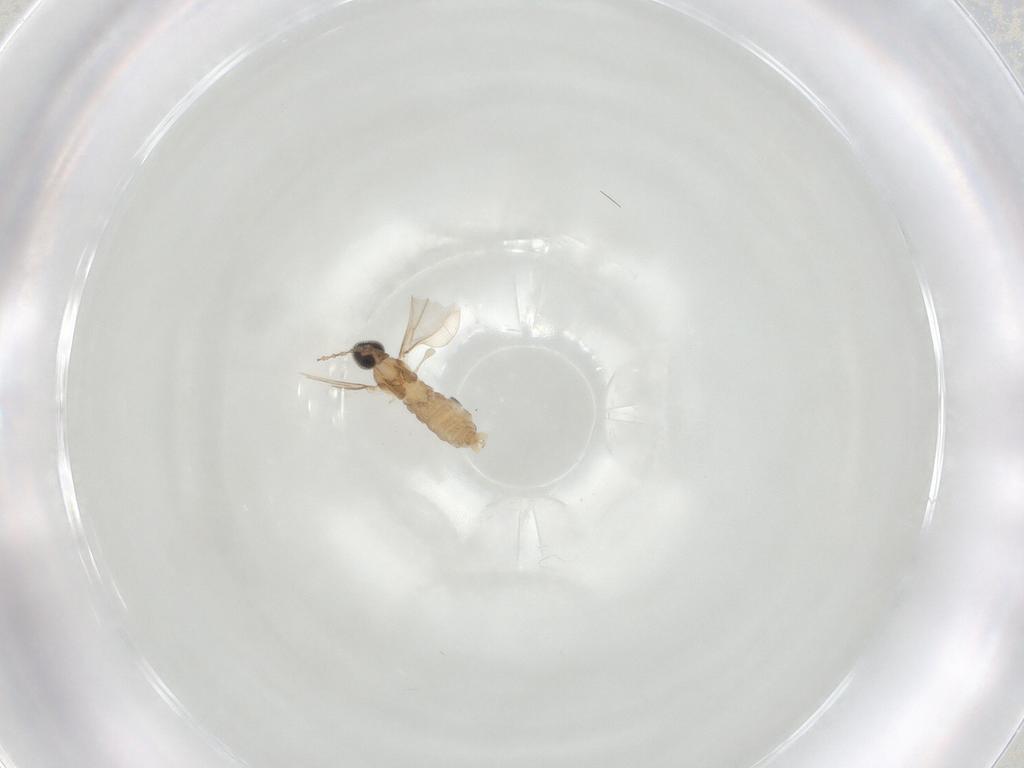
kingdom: Animalia
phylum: Arthropoda
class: Insecta
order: Diptera
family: Cecidomyiidae
